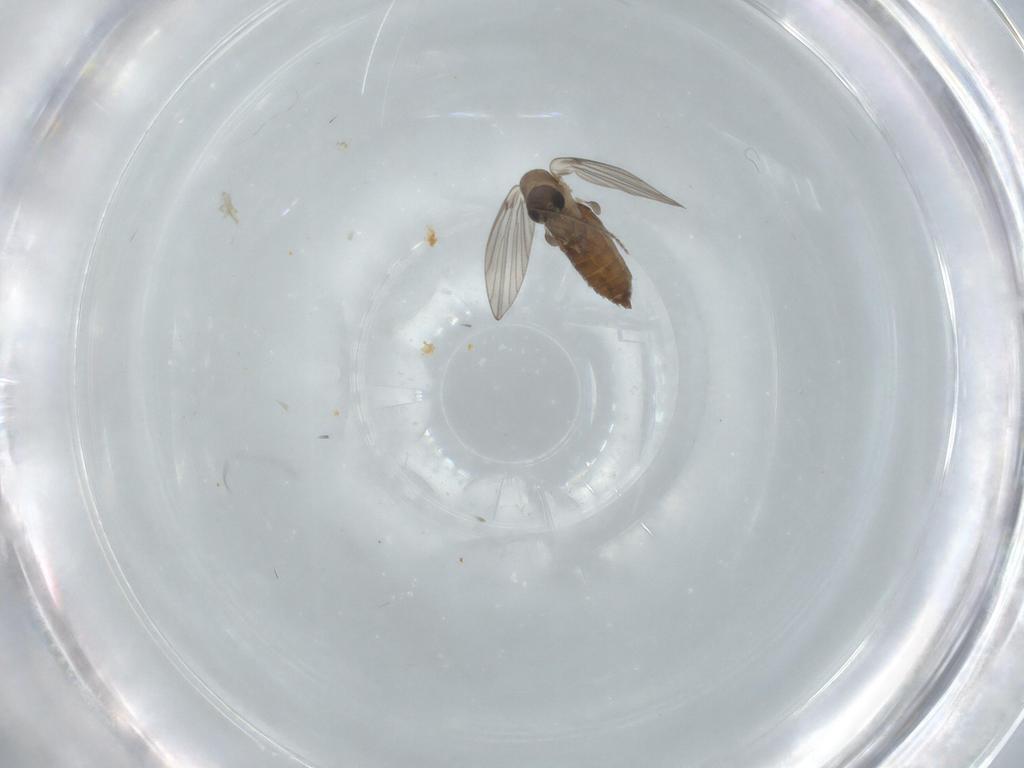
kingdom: Animalia
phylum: Arthropoda
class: Insecta
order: Diptera
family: Psychodidae
